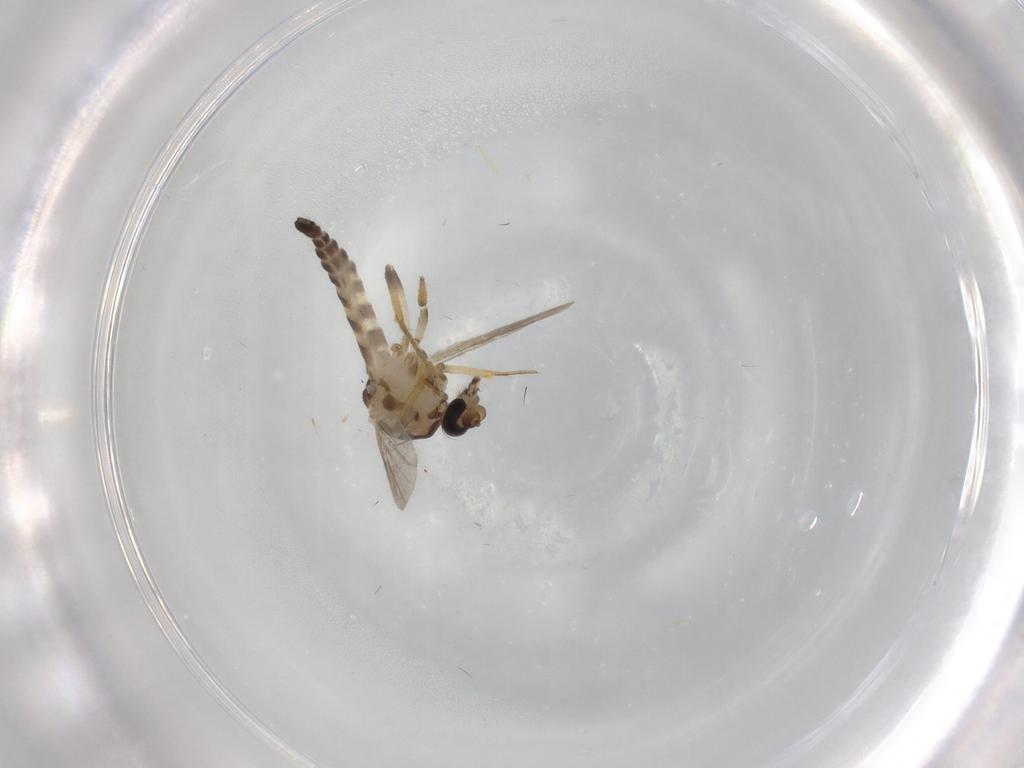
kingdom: Animalia
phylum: Arthropoda
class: Insecta
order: Diptera
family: Ceratopogonidae
